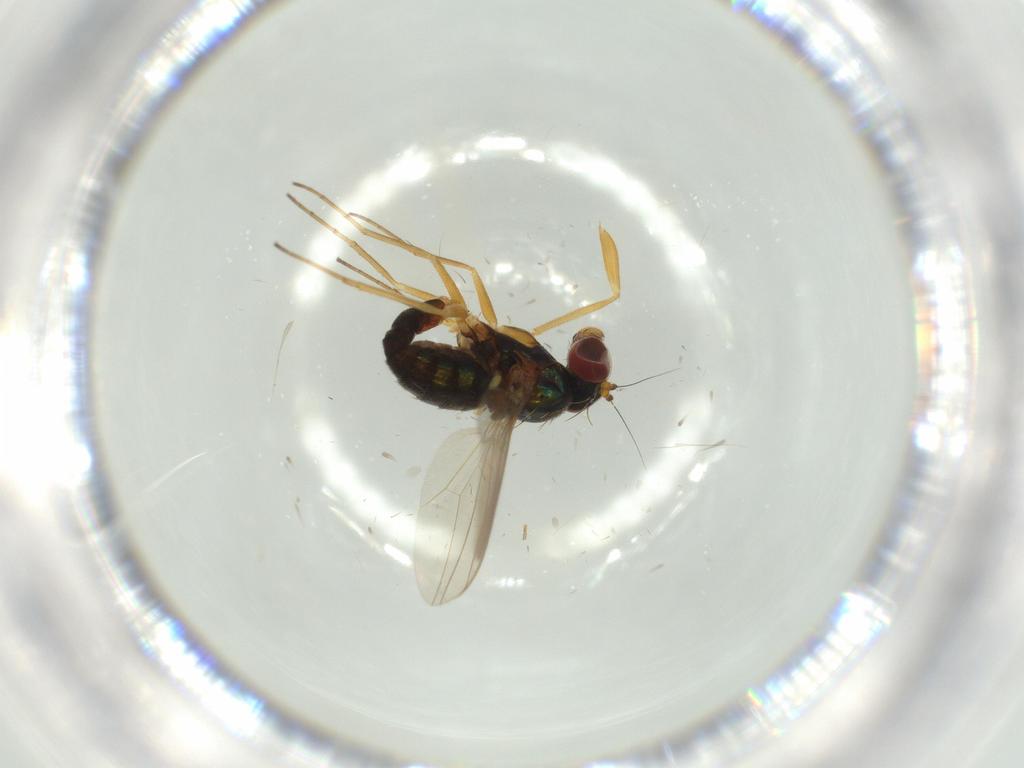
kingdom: Animalia
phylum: Arthropoda
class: Insecta
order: Diptera
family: Dolichopodidae
